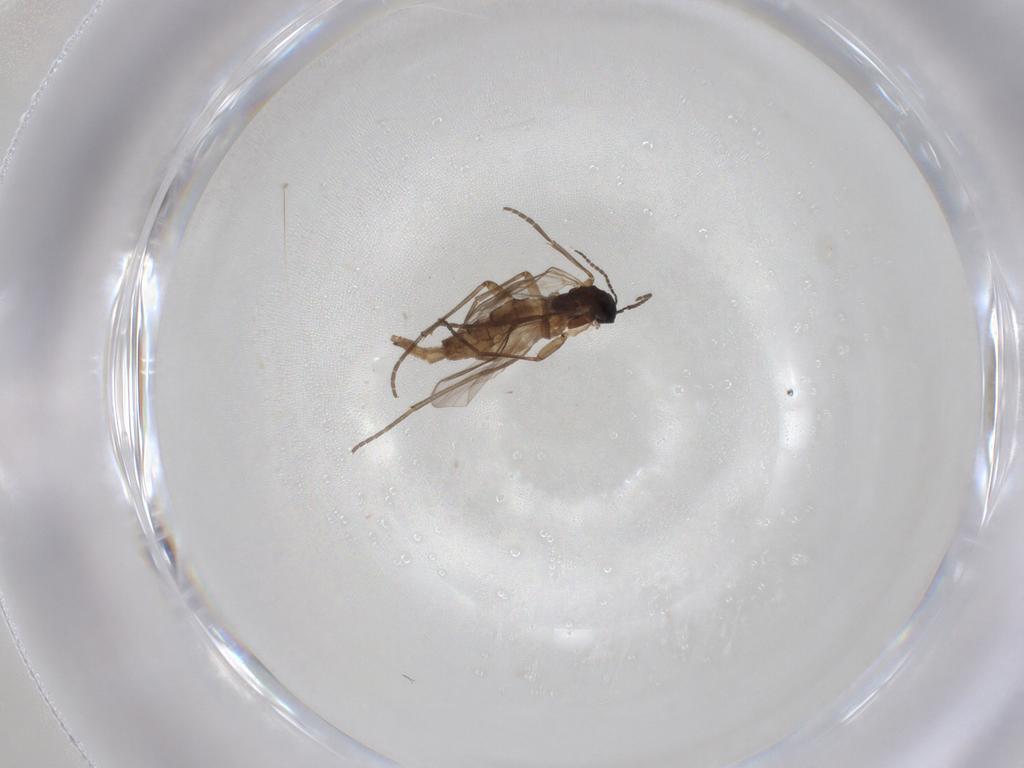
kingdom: Animalia
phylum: Arthropoda
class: Insecta
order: Diptera
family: Sciaridae
